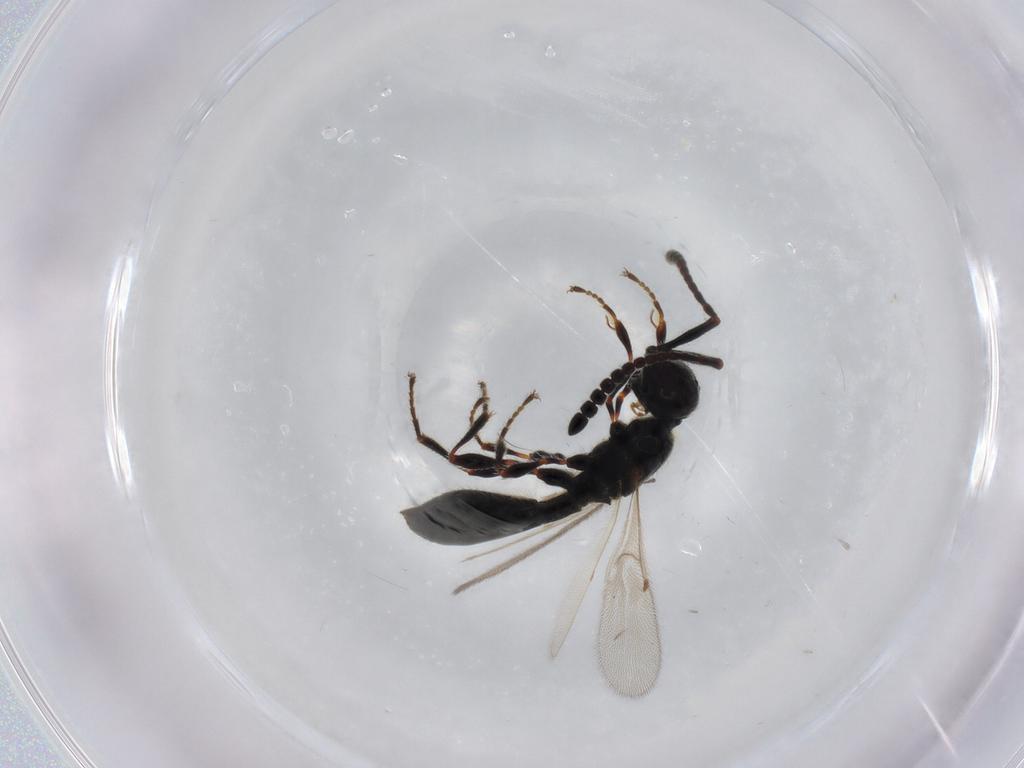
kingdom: Animalia
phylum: Arthropoda
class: Insecta
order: Hymenoptera
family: Diapriidae
